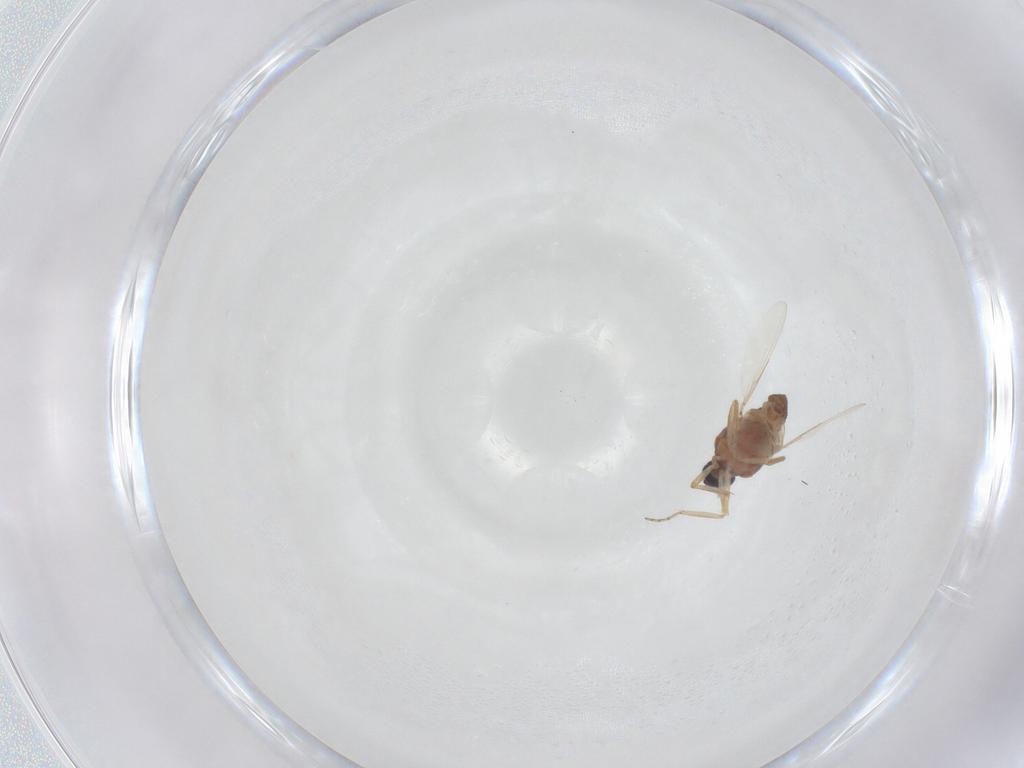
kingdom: Animalia
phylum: Arthropoda
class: Insecta
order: Diptera
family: Ceratopogonidae
